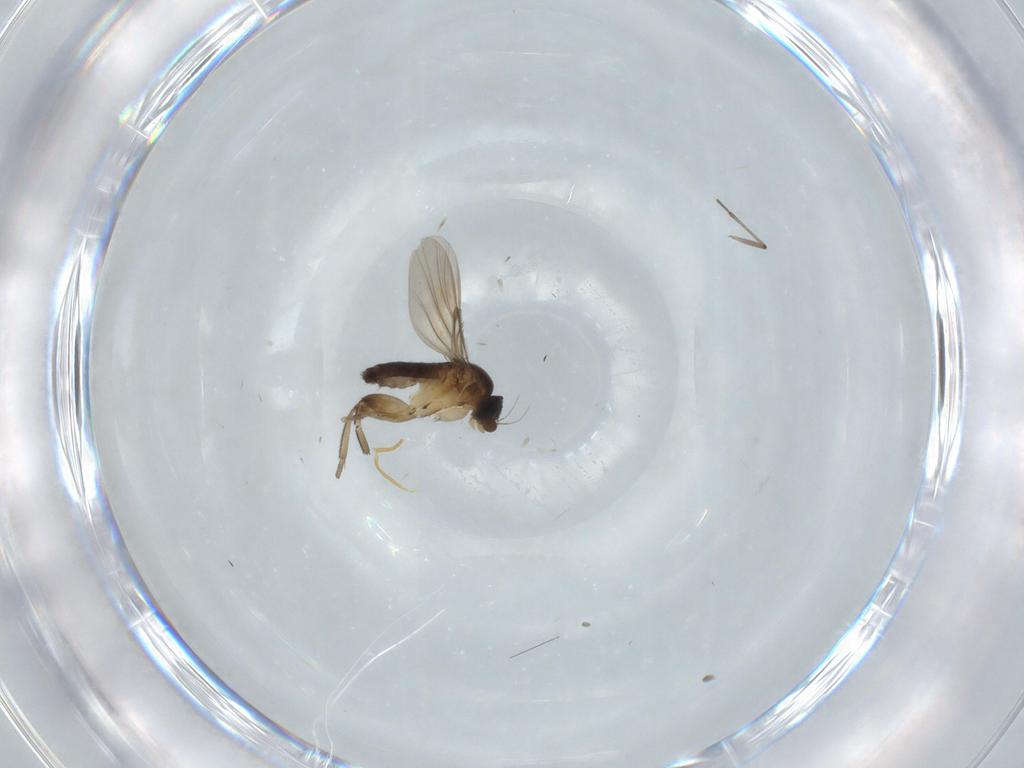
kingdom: Animalia
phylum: Arthropoda
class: Insecta
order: Diptera
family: Phoridae
